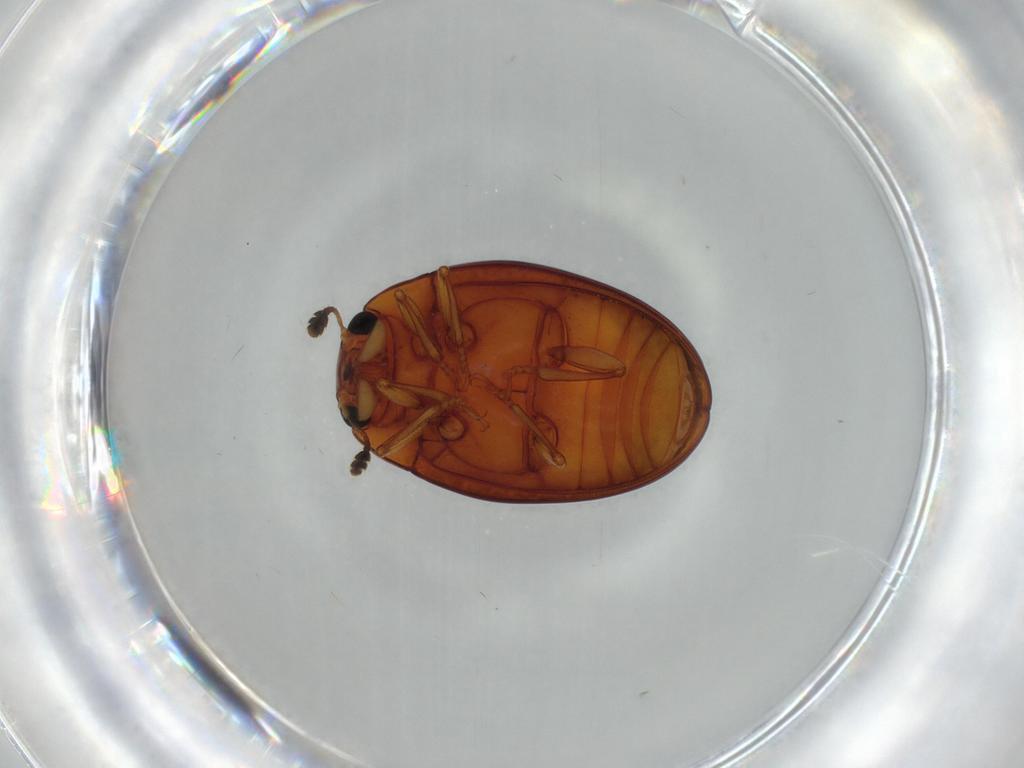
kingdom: Animalia
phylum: Arthropoda
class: Insecta
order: Coleoptera
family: Erotylidae
